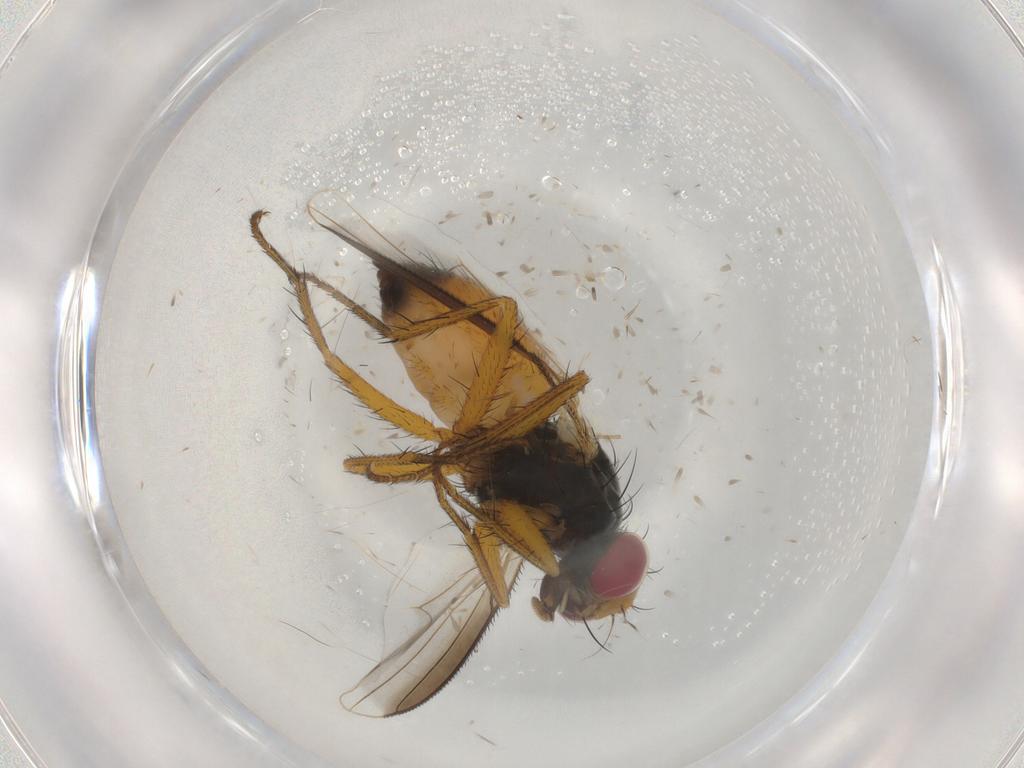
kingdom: Animalia
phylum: Arthropoda
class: Insecta
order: Diptera
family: Muscidae
